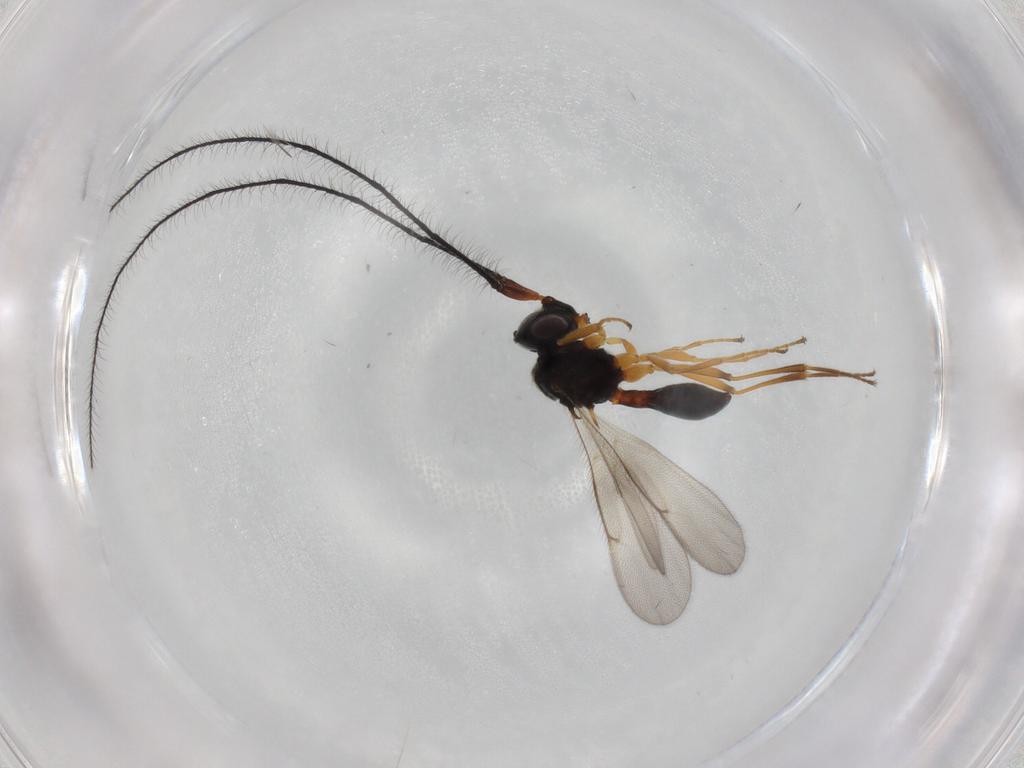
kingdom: Animalia
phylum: Arthropoda
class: Insecta
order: Hymenoptera
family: Scelionidae
